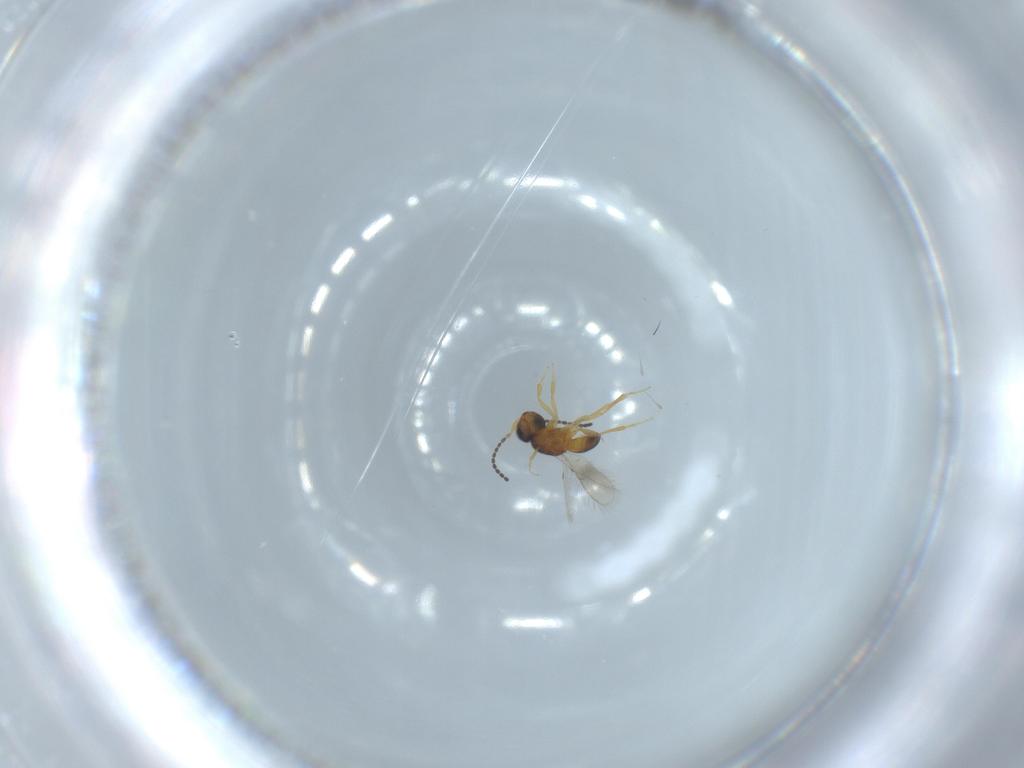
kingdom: Animalia
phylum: Arthropoda
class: Insecta
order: Hymenoptera
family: Scelionidae
